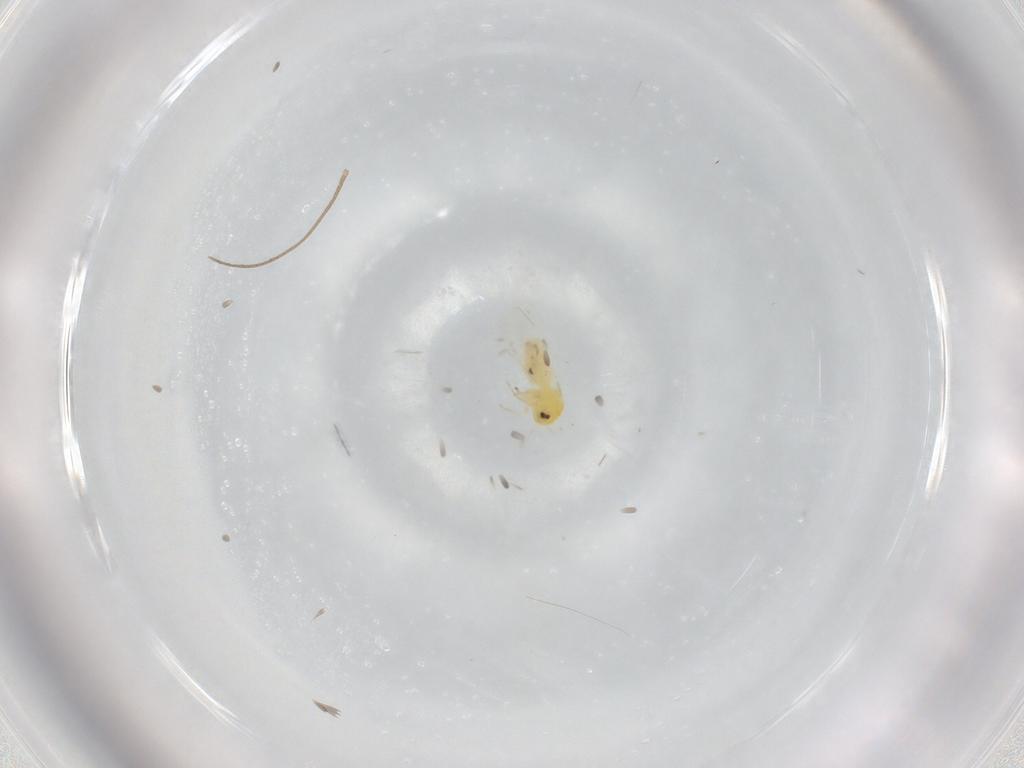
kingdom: Animalia
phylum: Arthropoda
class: Insecta
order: Hemiptera
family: Aleyrodidae
